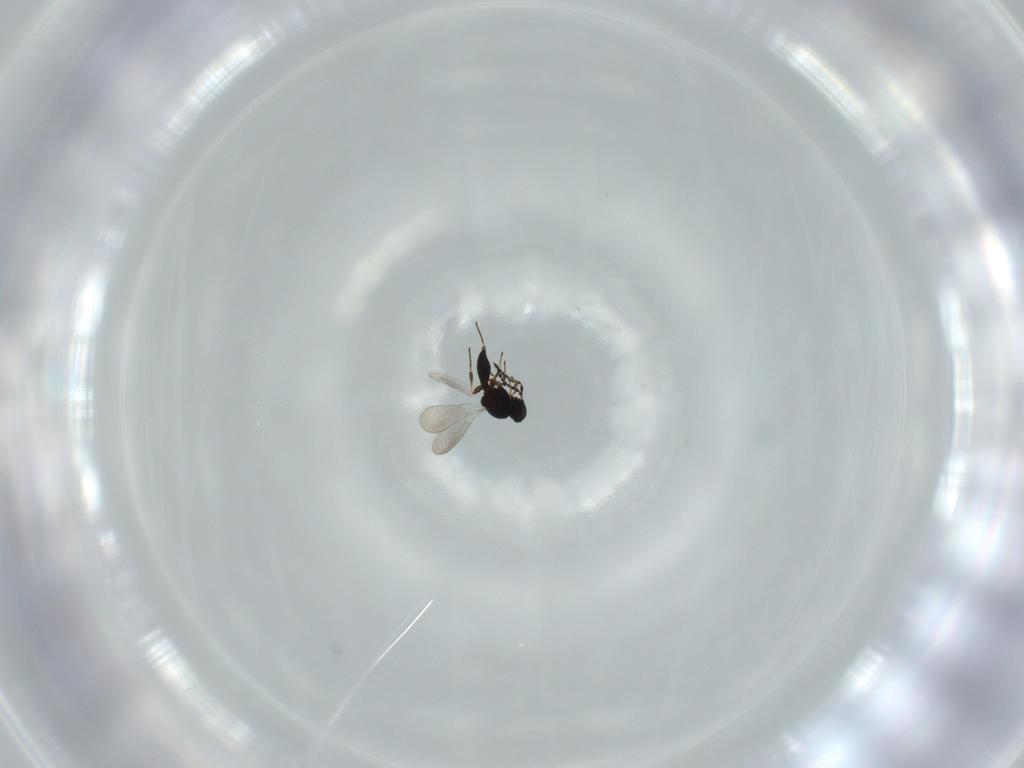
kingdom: Animalia
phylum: Arthropoda
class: Insecta
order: Hymenoptera
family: Platygastridae
